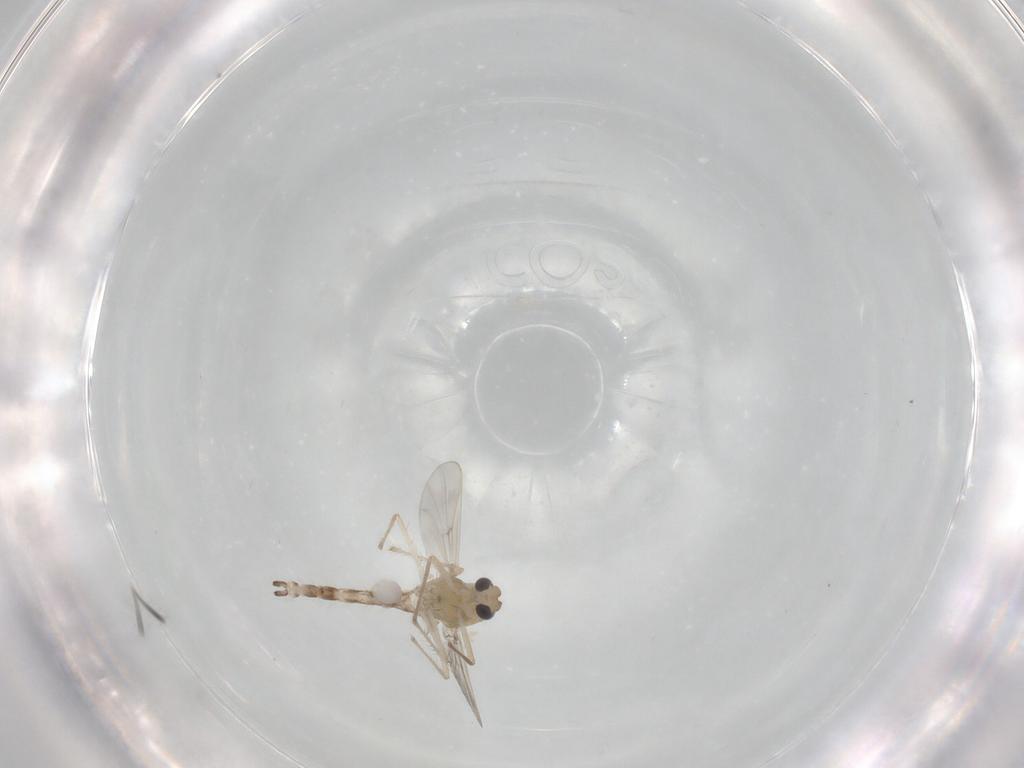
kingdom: Animalia
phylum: Arthropoda
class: Insecta
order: Diptera
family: Chironomidae
